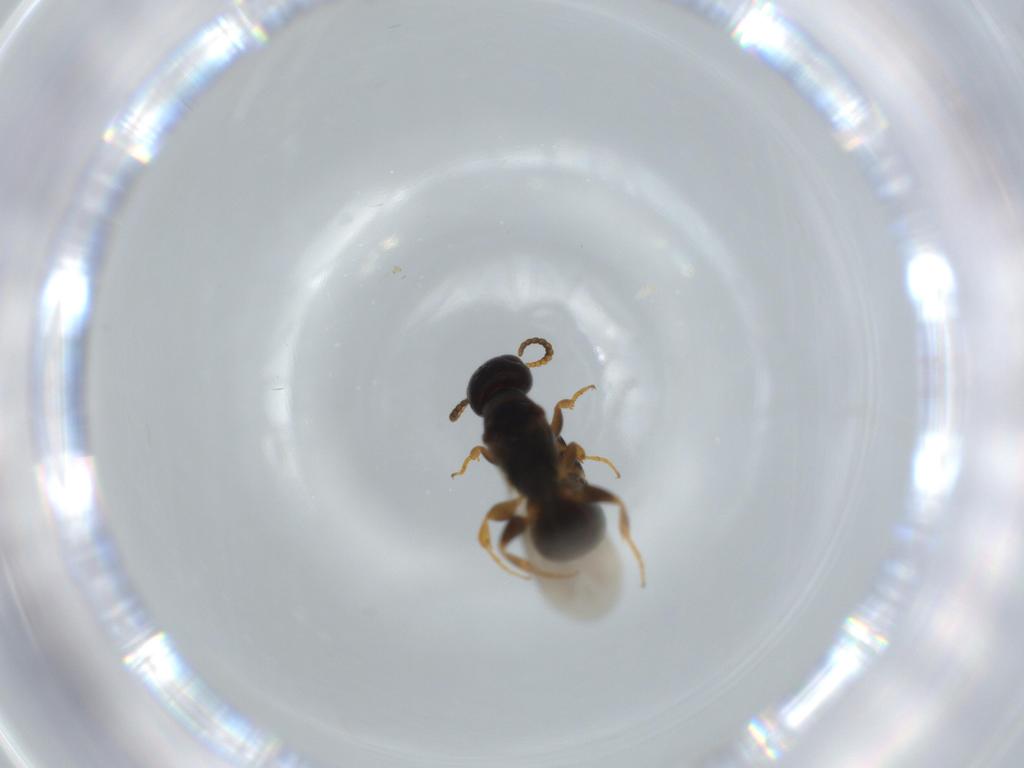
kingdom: Animalia
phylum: Arthropoda
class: Insecta
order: Hymenoptera
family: Bethylidae
